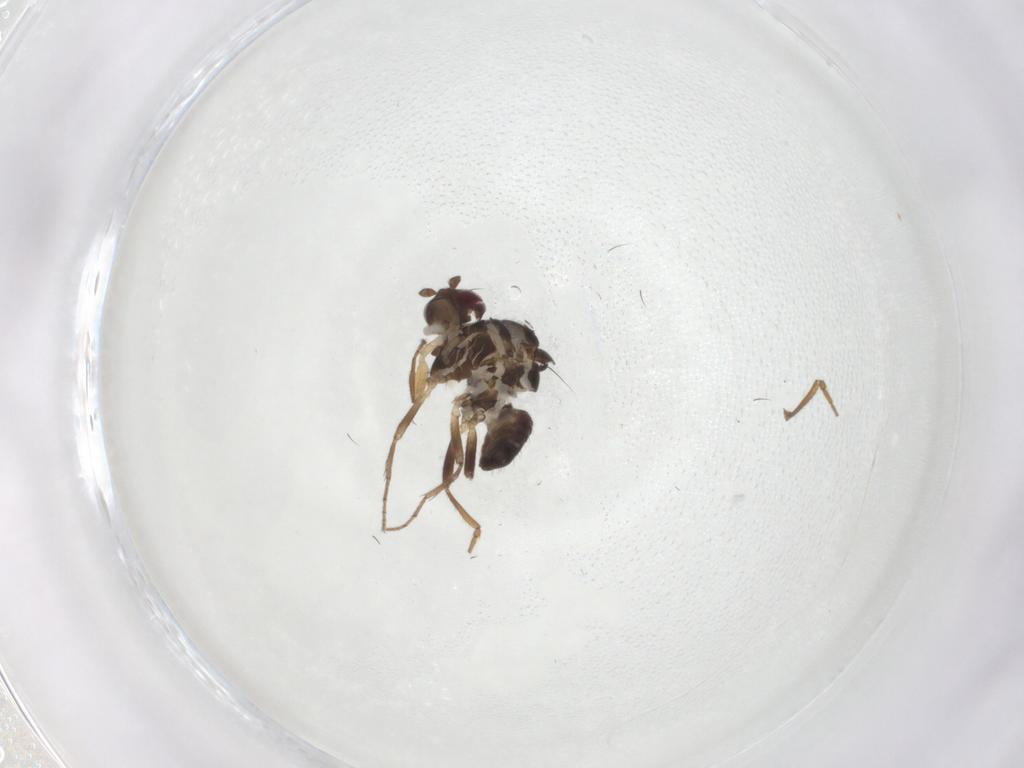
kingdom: Animalia
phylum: Arthropoda
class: Insecta
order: Diptera
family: Sphaeroceridae
